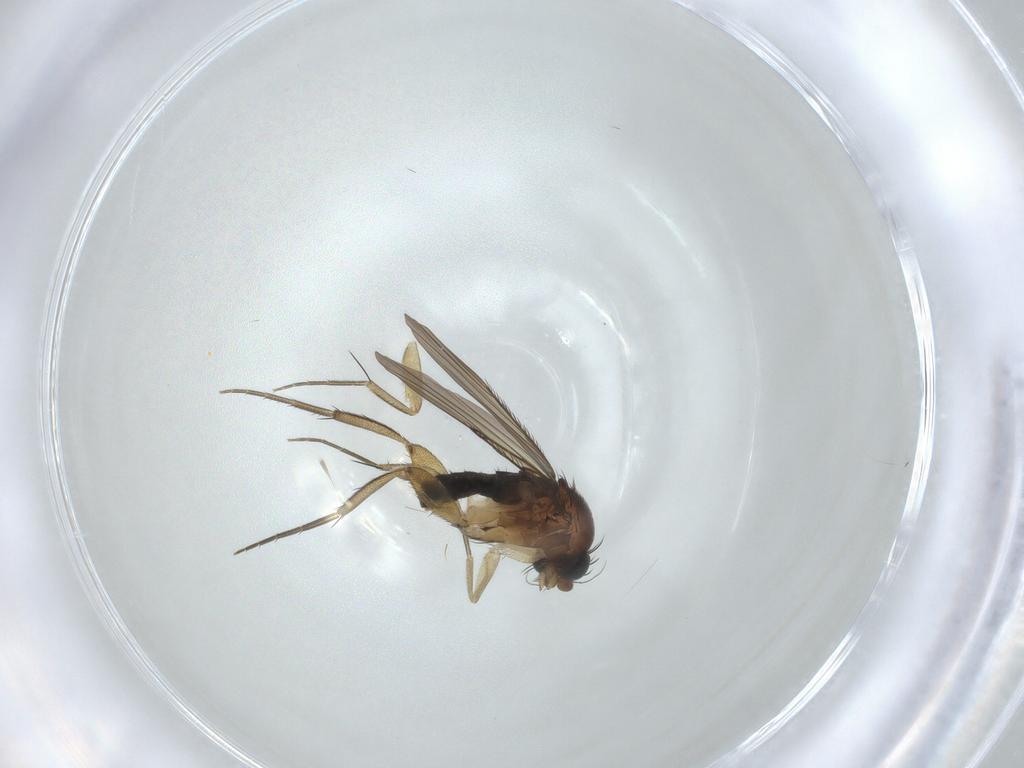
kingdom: Animalia
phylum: Arthropoda
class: Insecta
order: Diptera
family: Phoridae
